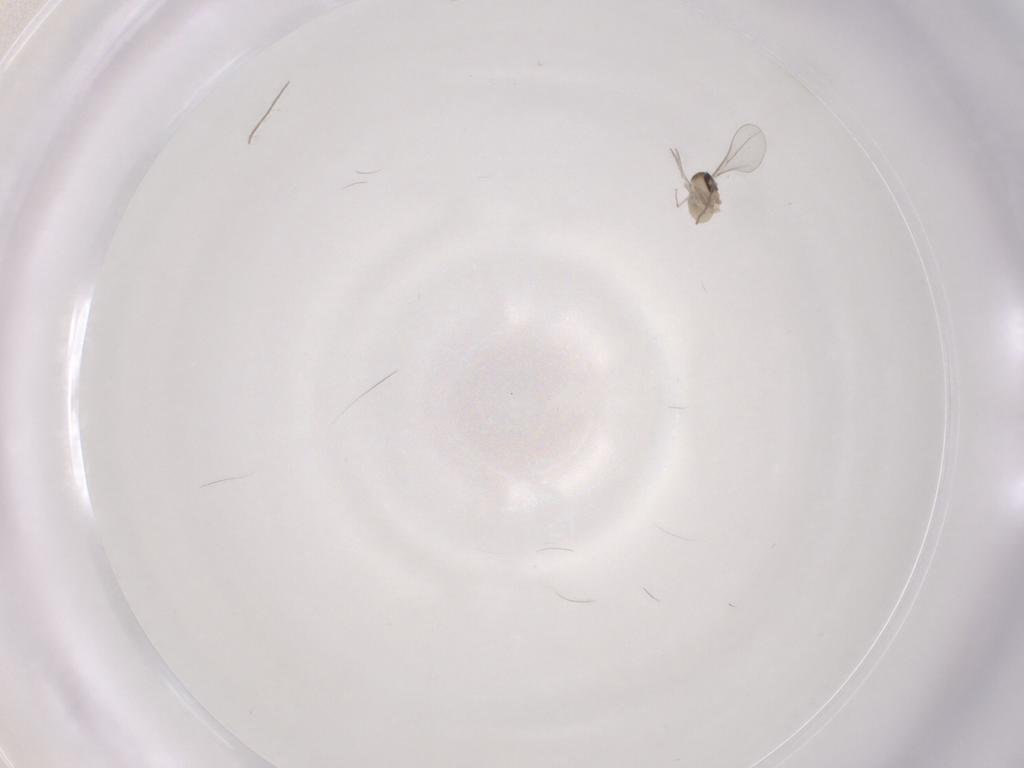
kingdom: Animalia
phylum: Arthropoda
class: Insecta
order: Diptera
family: Cecidomyiidae
